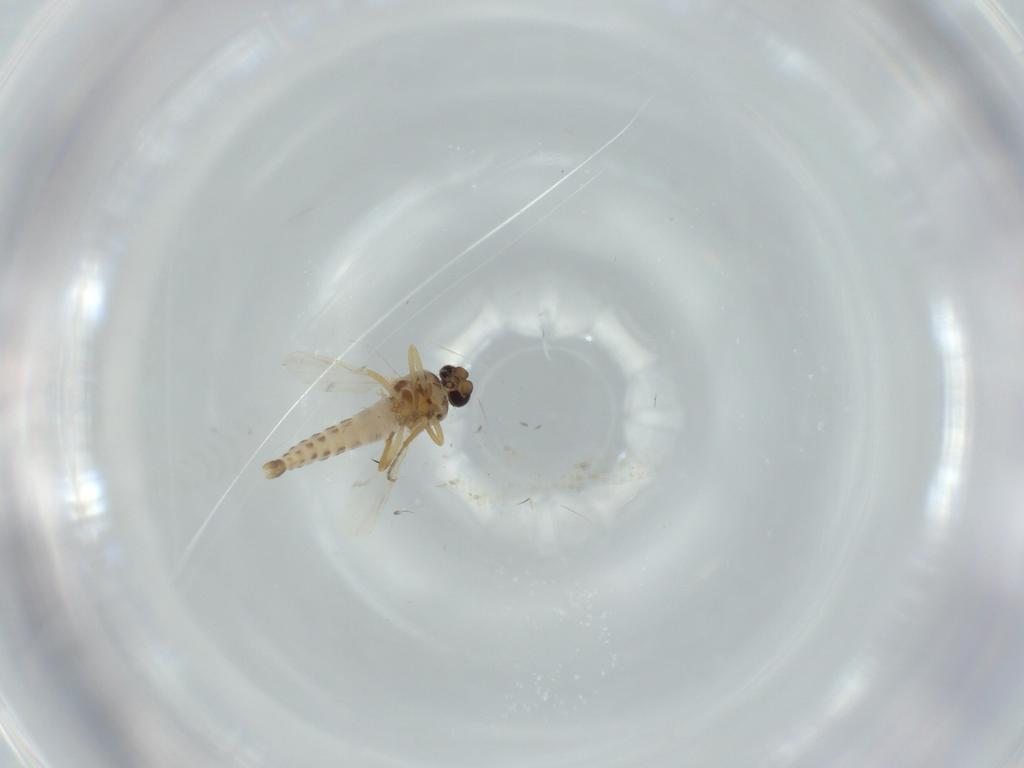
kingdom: Animalia
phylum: Arthropoda
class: Insecta
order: Diptera
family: Ceratopogonidae
